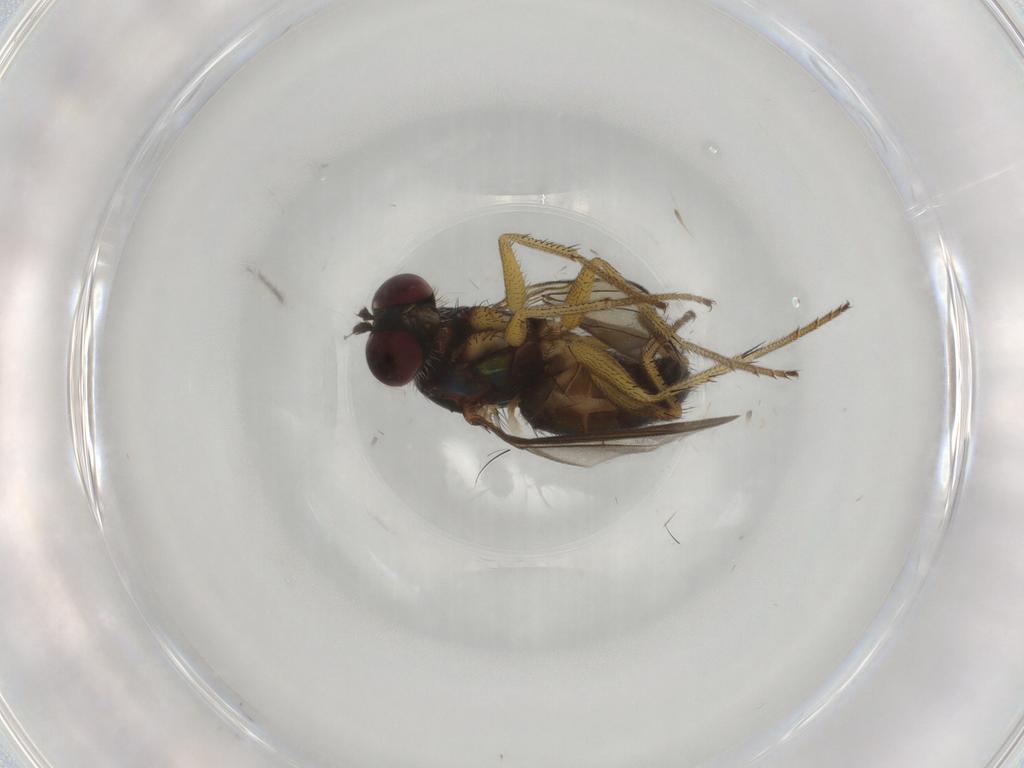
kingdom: Animalia
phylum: Arthropoda
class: Insecta
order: Diptera
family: Dolichopodidae
